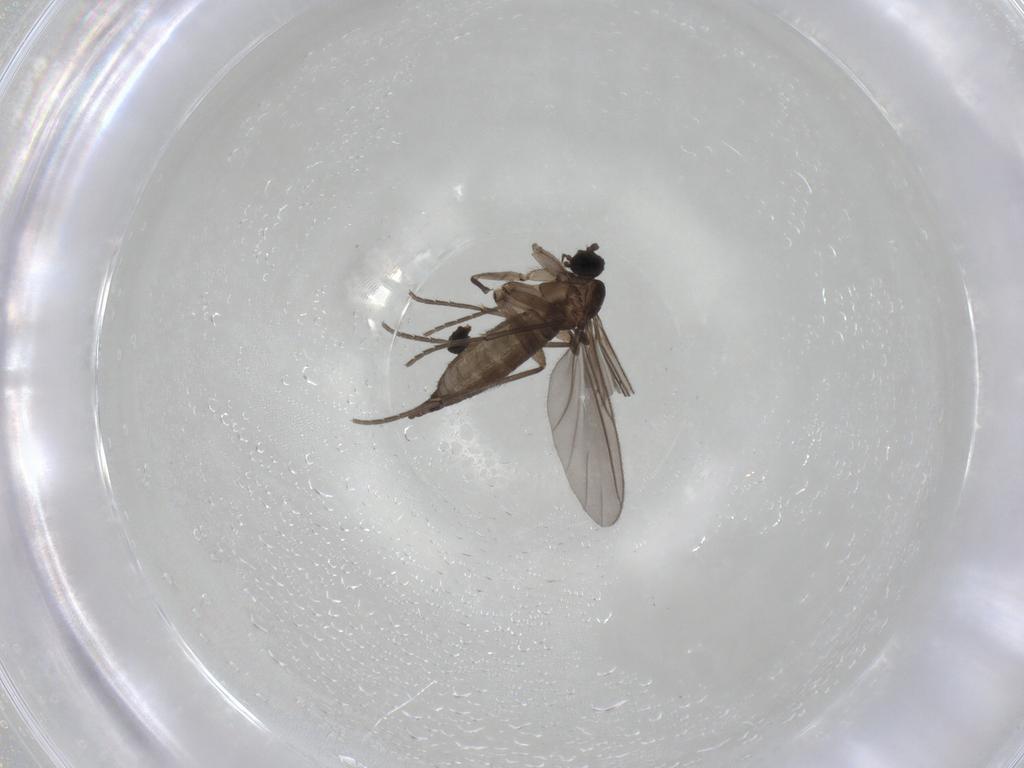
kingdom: Animalia
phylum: Arthropoda
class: Insecta
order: Diptera
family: Sciaridae
